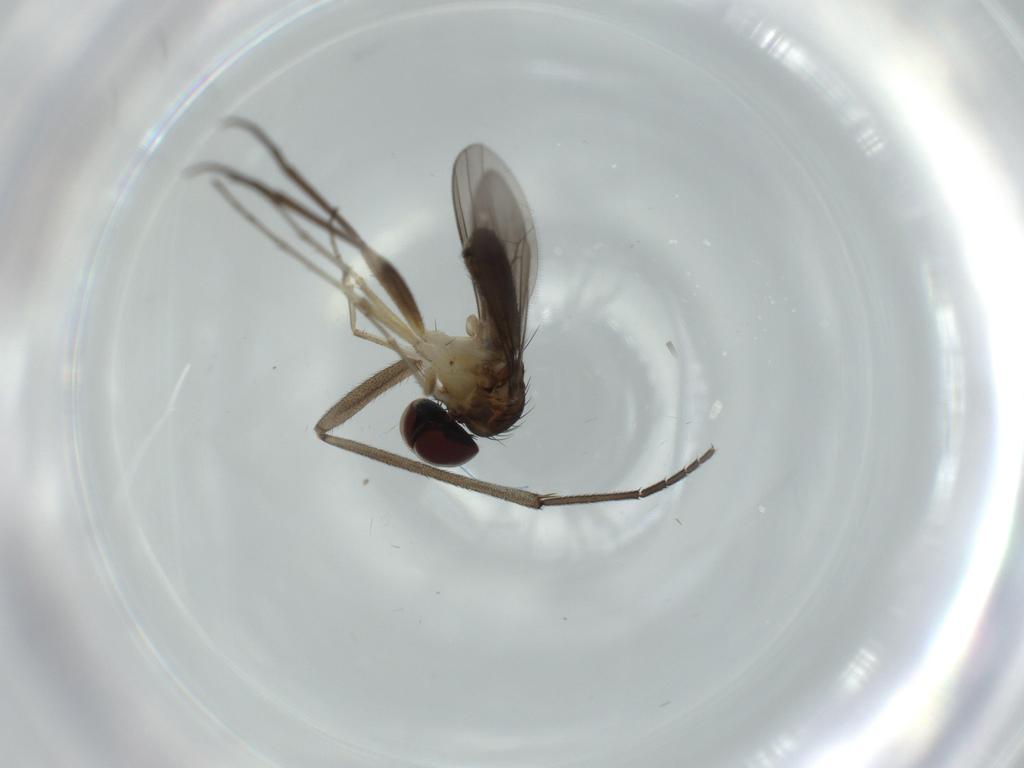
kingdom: Animalia
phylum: Arthropoda
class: Insecta
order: Diptera
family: Sciaridae
